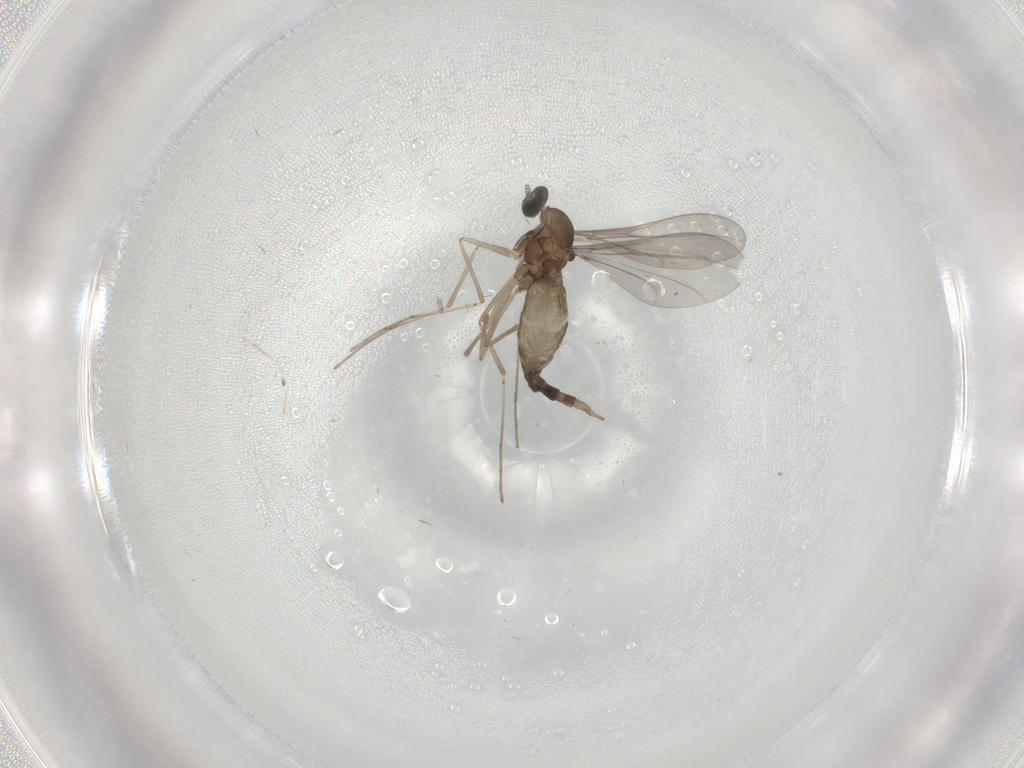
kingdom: Animalia
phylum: Arthropoda
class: Insecta
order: Diptera
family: Cecidomyiidae
